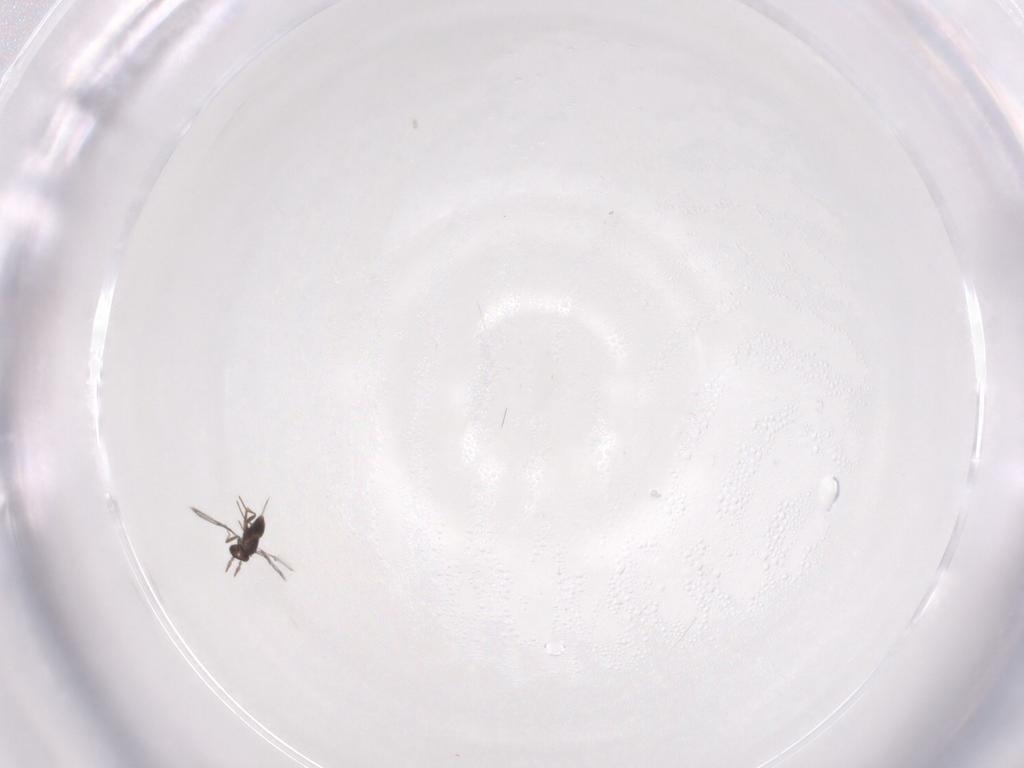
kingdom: Animalia
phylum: Arthropoda
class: Insecta
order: Hymenoptera
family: Trichogrammatidae
